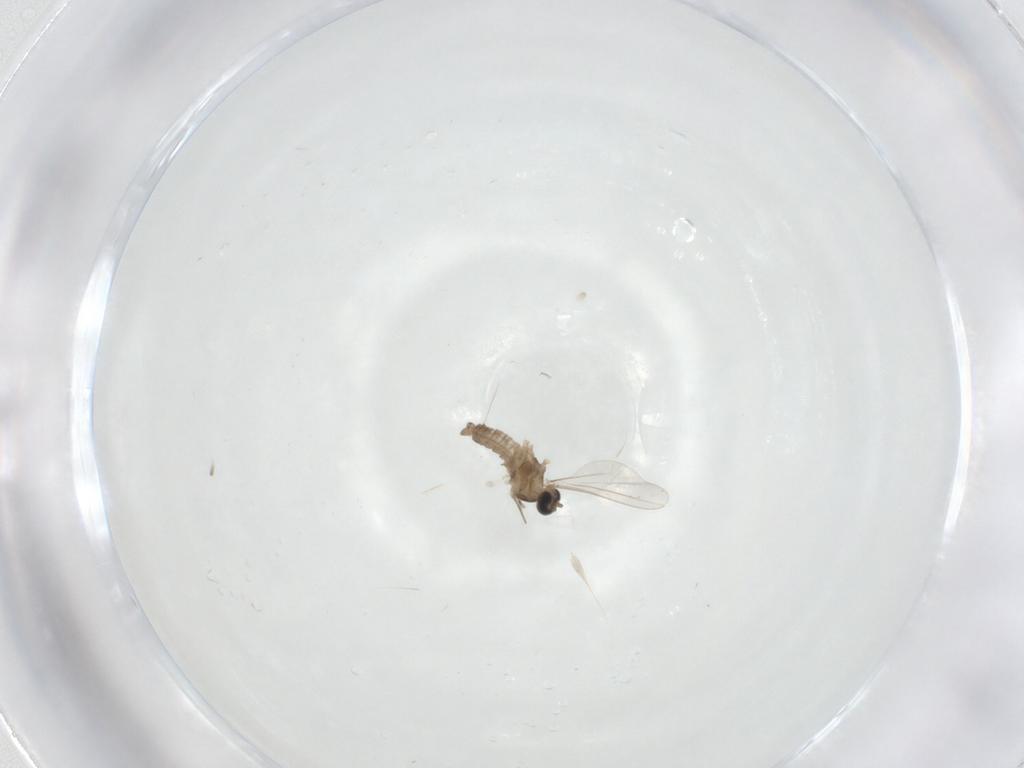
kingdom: Animalia
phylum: Arthropoda
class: Insecta
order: Diptera
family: Cecidomyiidae
